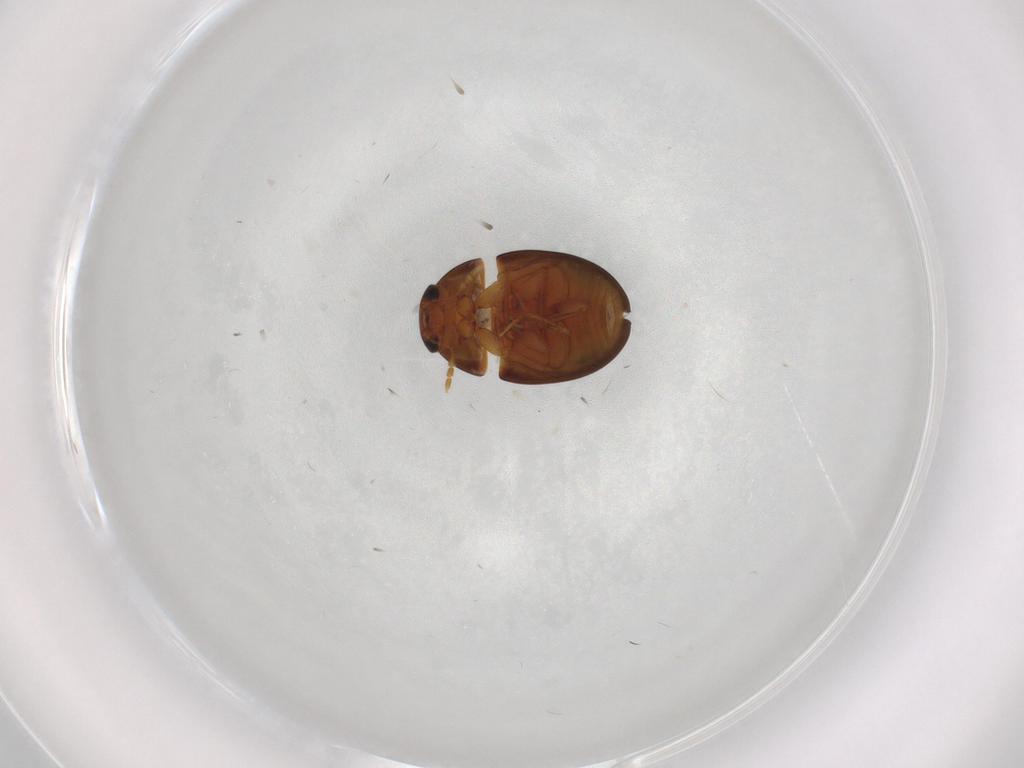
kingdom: Animalia
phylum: Arthropoda
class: Insecta
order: Coleoptera
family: Phalacridae
